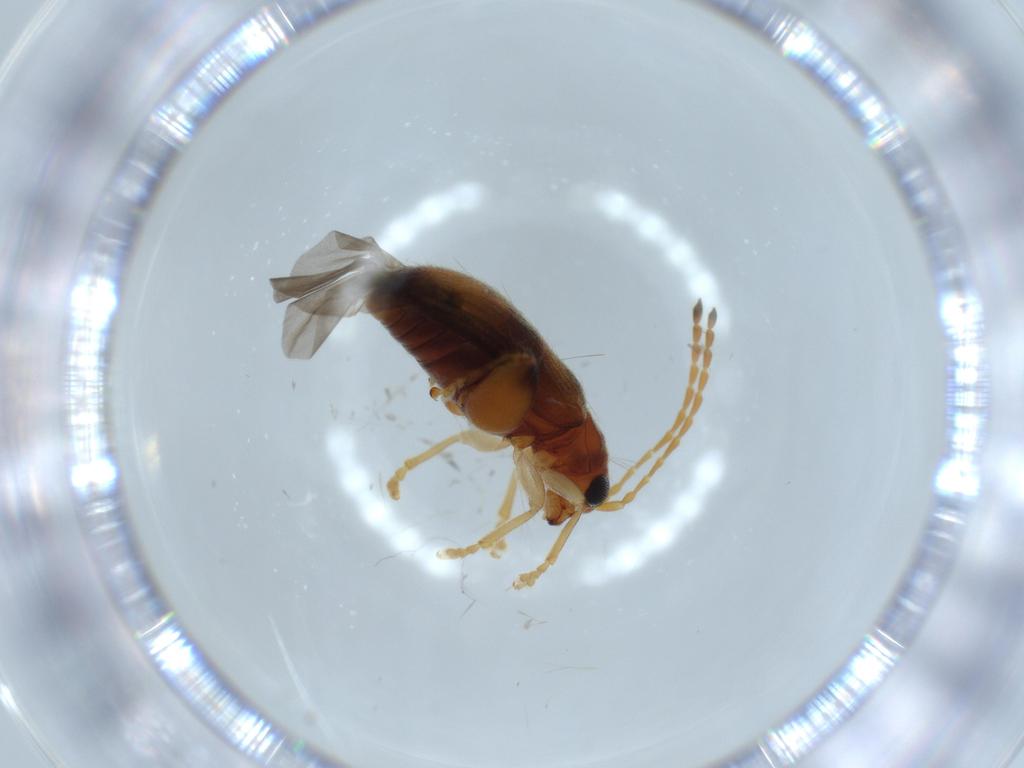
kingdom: Animalia
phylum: Arthropoda
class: Insecta
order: Coleoptera
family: Chrysomelidae
